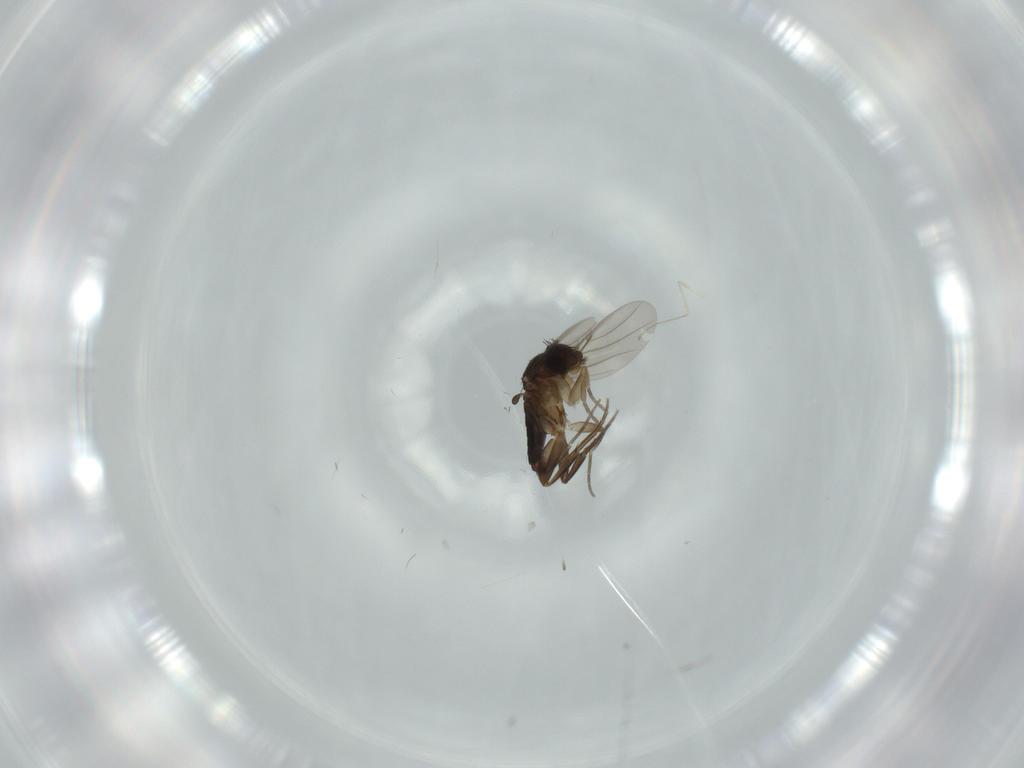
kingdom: Animalia
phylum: Arthropoda
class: Insecta
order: Diptera
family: Phoridae
